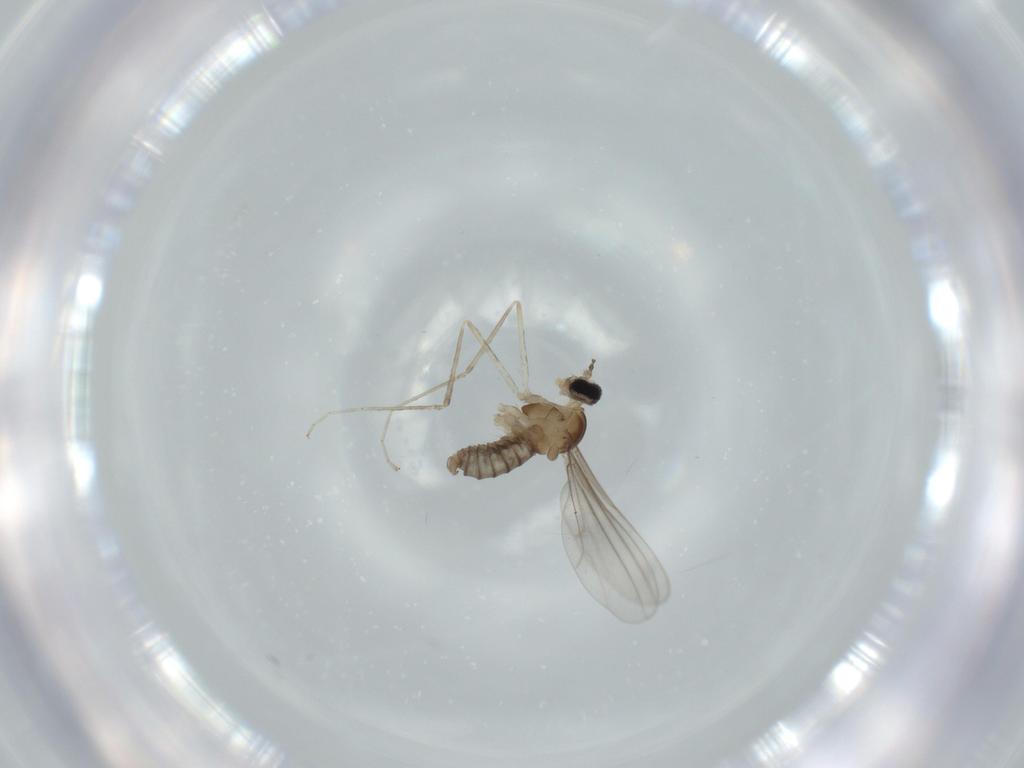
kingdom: Animalia
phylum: Arthropoda
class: Insecta
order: Diptera
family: Cecidomyiidae
